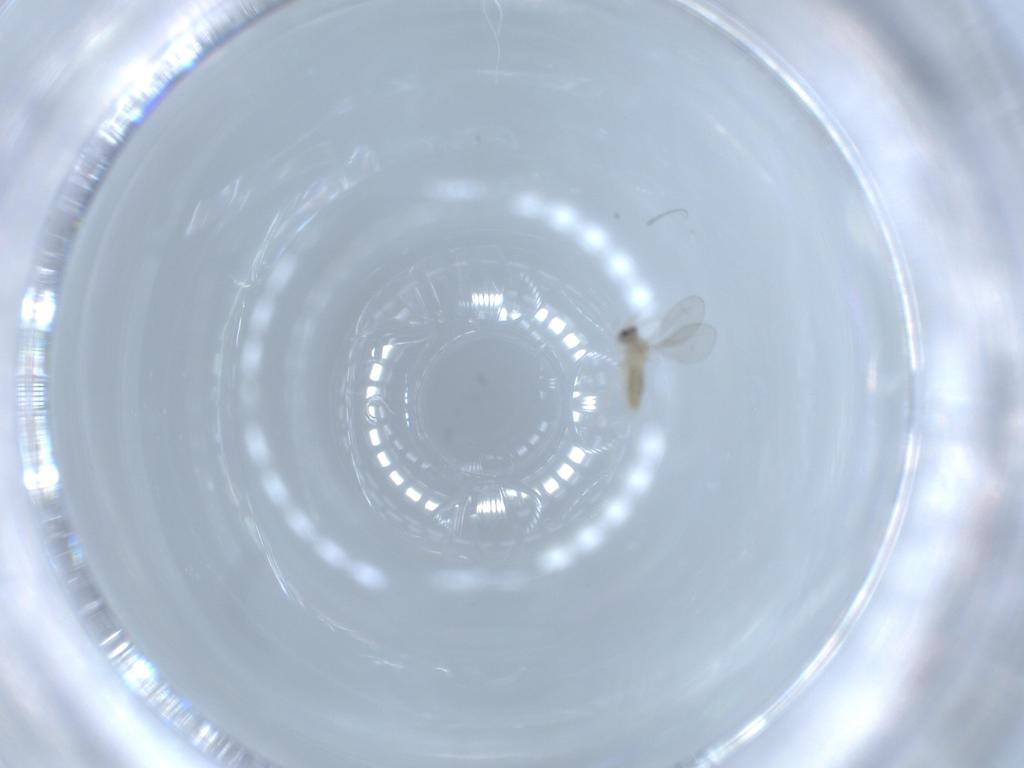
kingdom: Animalia
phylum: Arthropoda
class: Insecta
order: Diptera
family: Cecidomyiidae
